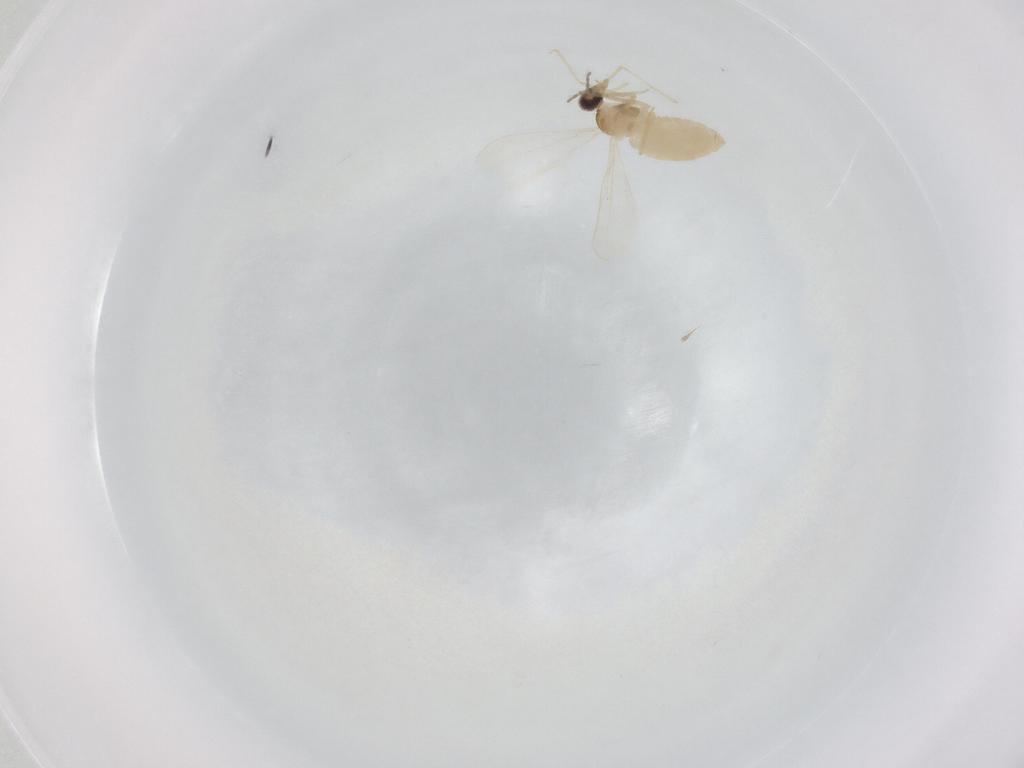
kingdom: Animalia
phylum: Arthropoda
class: Insecta
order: Diptera
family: Cecidomyiidae
